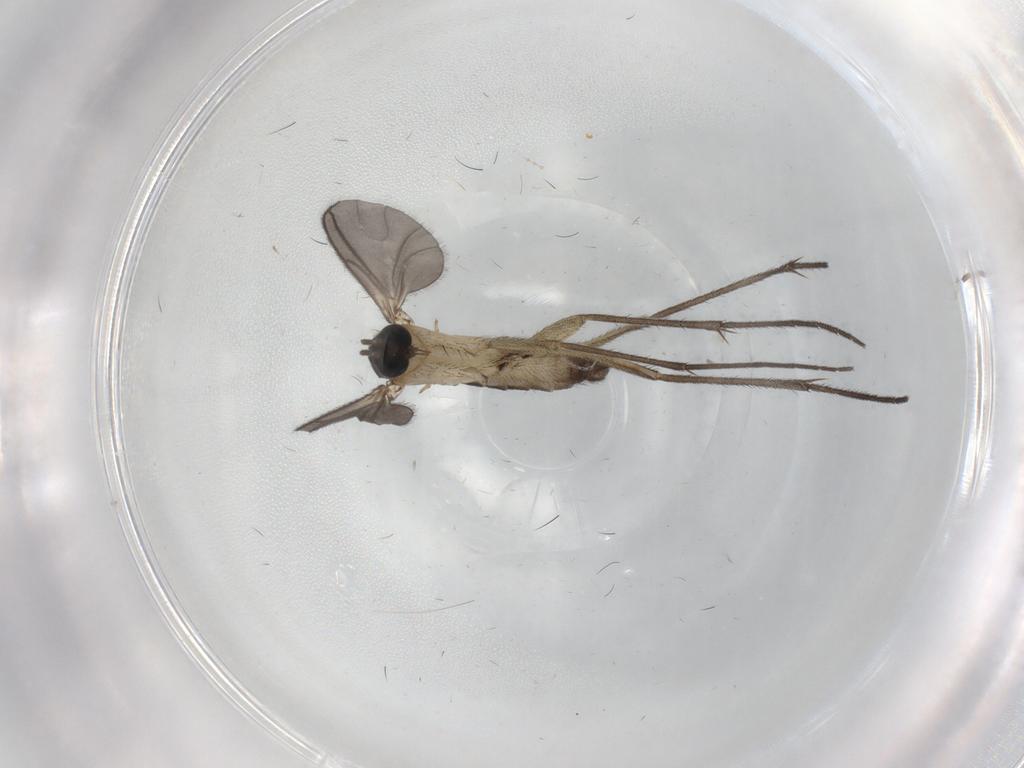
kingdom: Animalia
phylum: Arthropoda
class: Insecta
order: Diptera
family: Sciaridae
